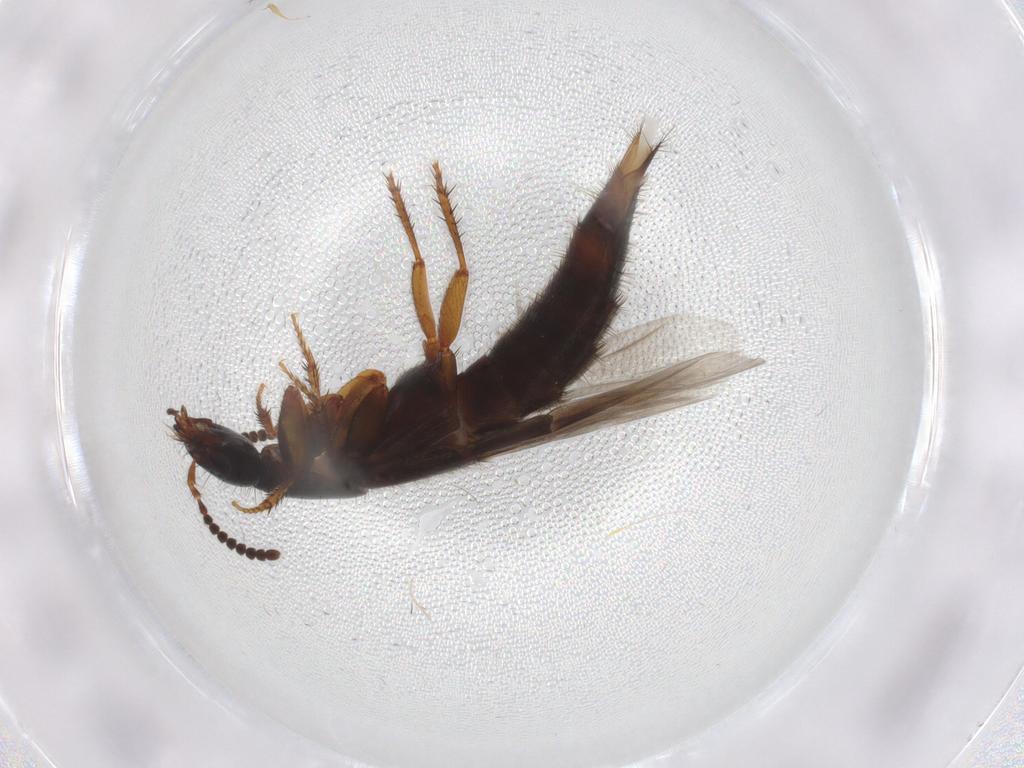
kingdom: Animalia
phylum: Arthropoda
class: Insecta
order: Coleoptera
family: Staphylinidae
